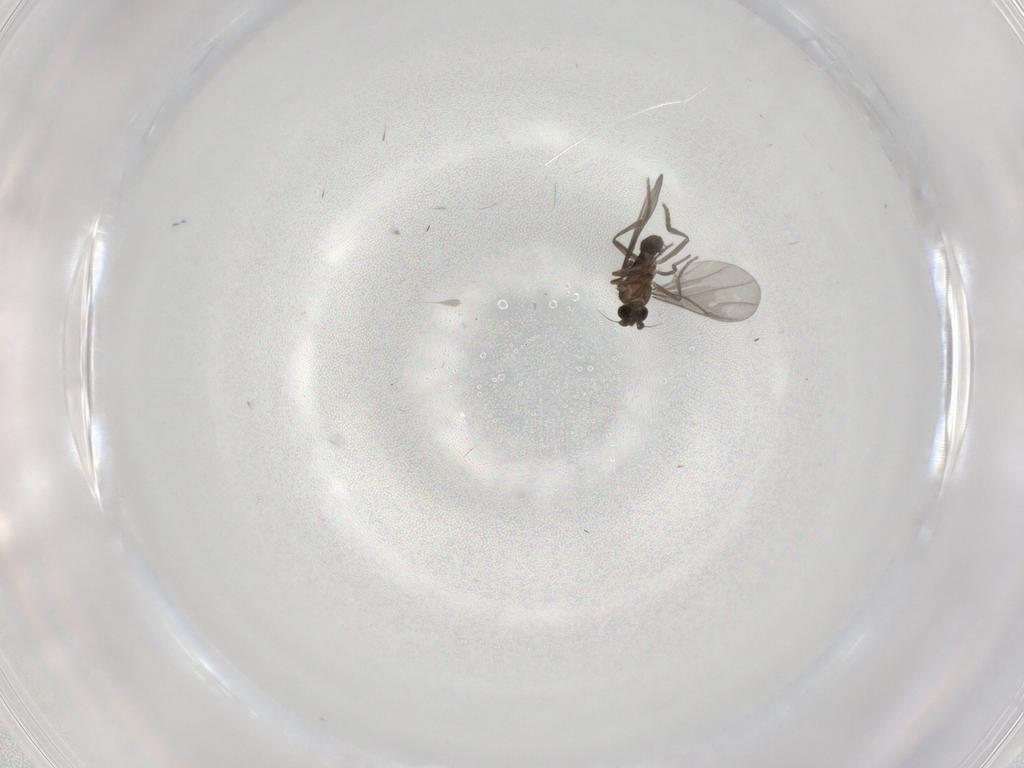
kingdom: Animalia
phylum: Arthropoda
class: Insecta
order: Diptera
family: Phoridae
